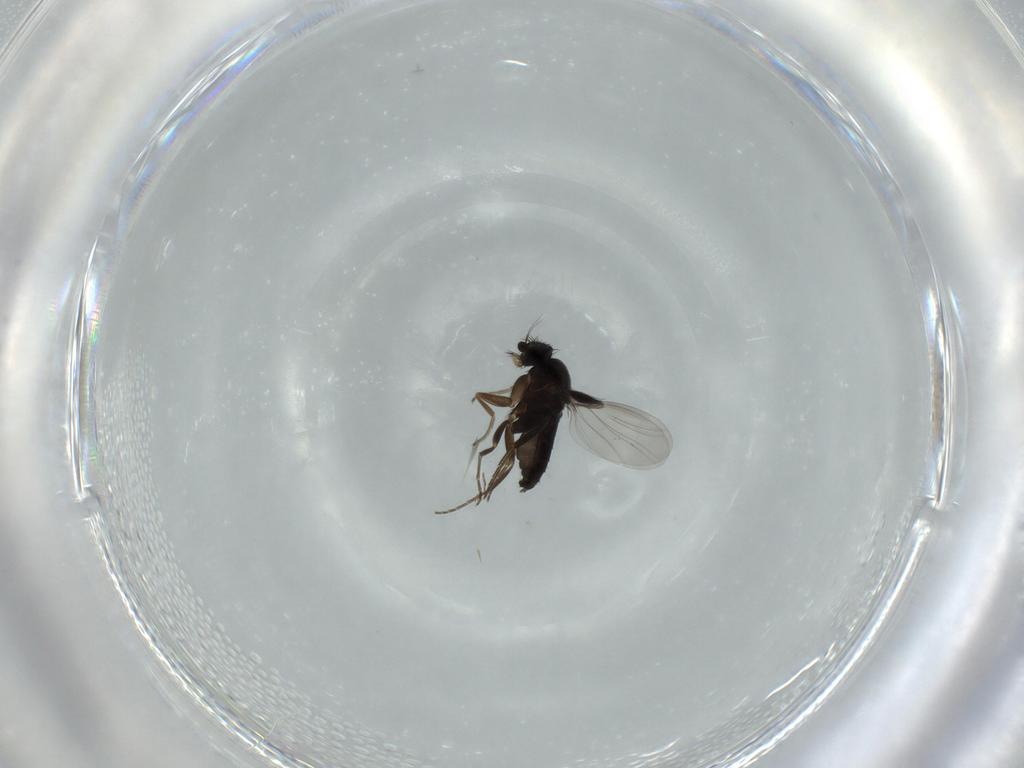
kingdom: Animalia
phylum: Arthropoda
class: Insecta
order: Diptera
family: Phoridae
